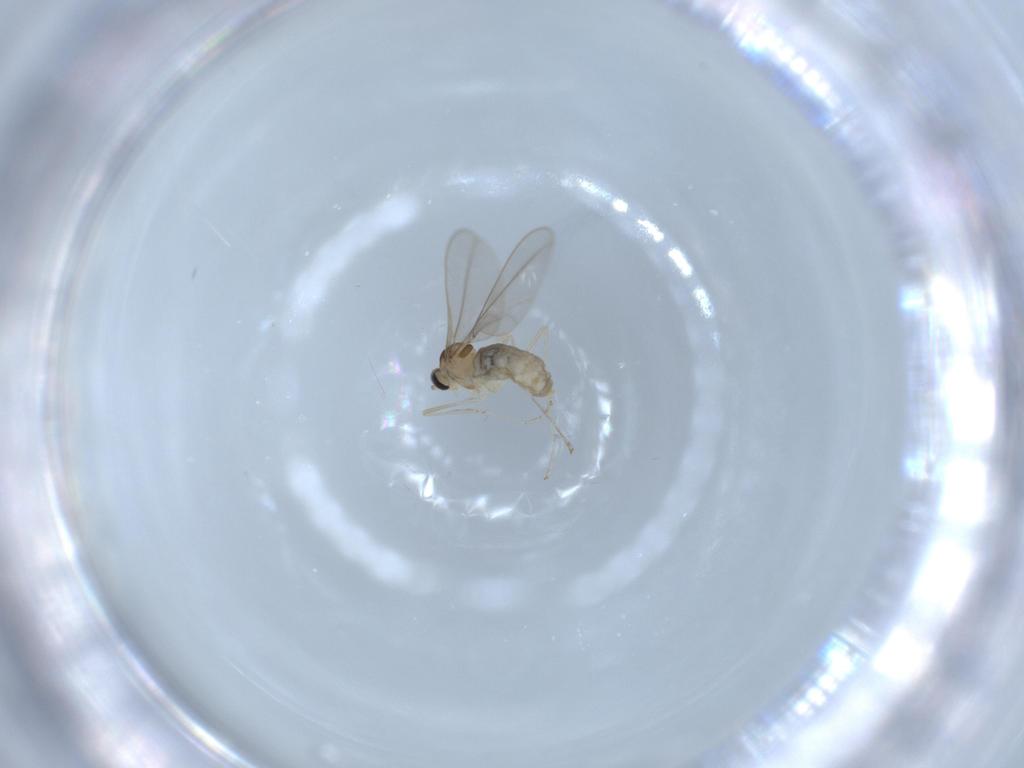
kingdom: Animalia
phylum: Arthropoda
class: Insecta
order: Diptera
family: Cecidomyiidae
